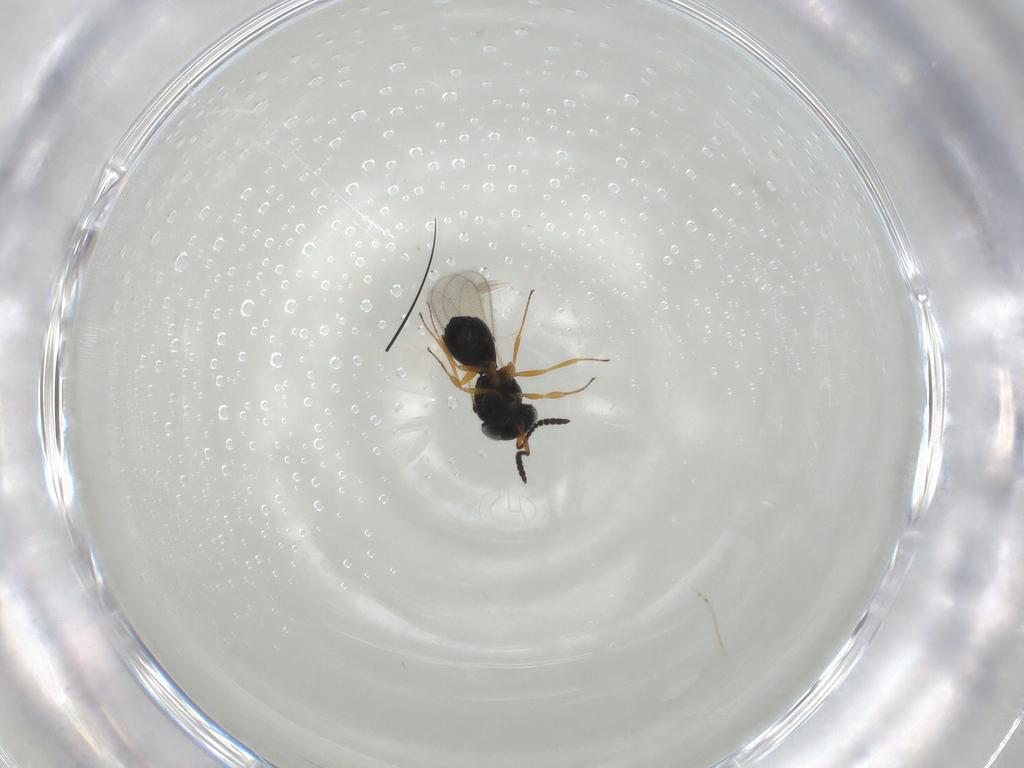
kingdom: Animalia
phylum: Arthropoda
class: Insecta
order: Hymenoptera
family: Scelionidae
